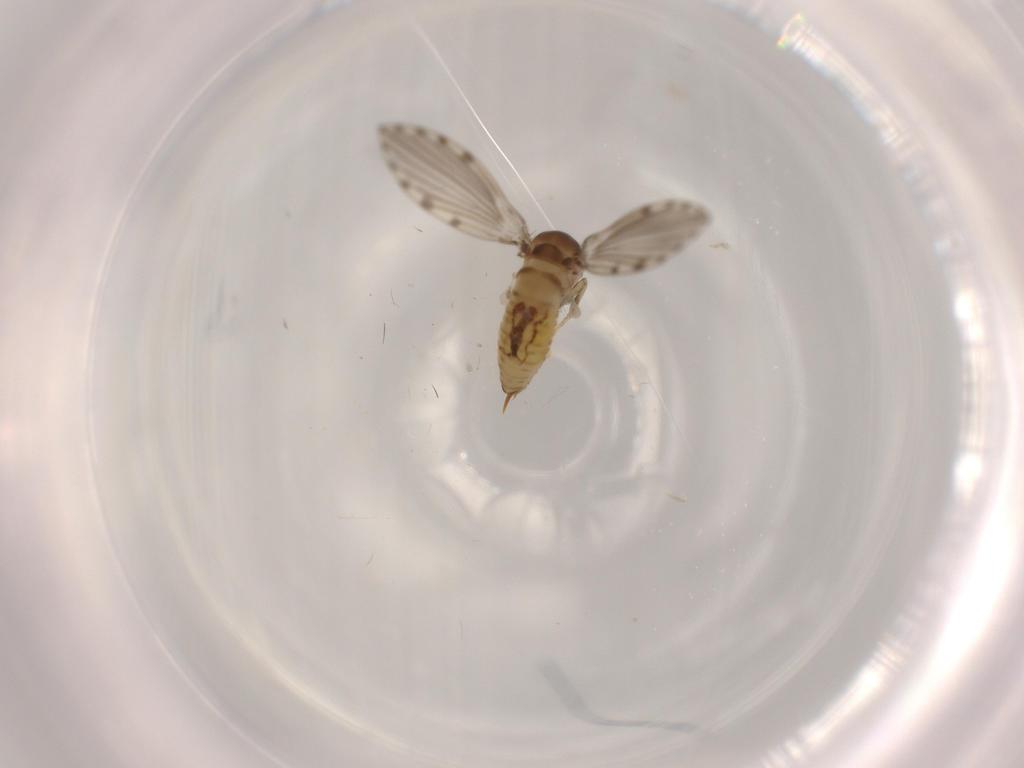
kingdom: Animalia
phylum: Arthropoda
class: Insecta
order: Diptera
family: Psychodidae
